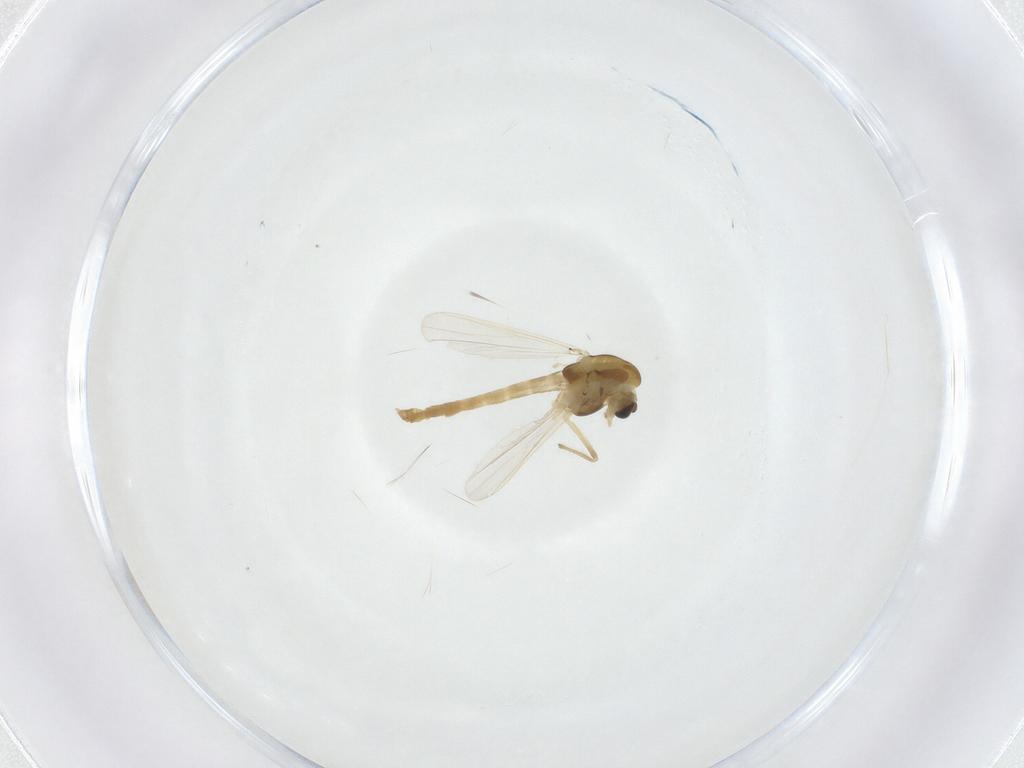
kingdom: Animalia
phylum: Arthropoda
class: Insecta
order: Diptera
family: Chironomidae
